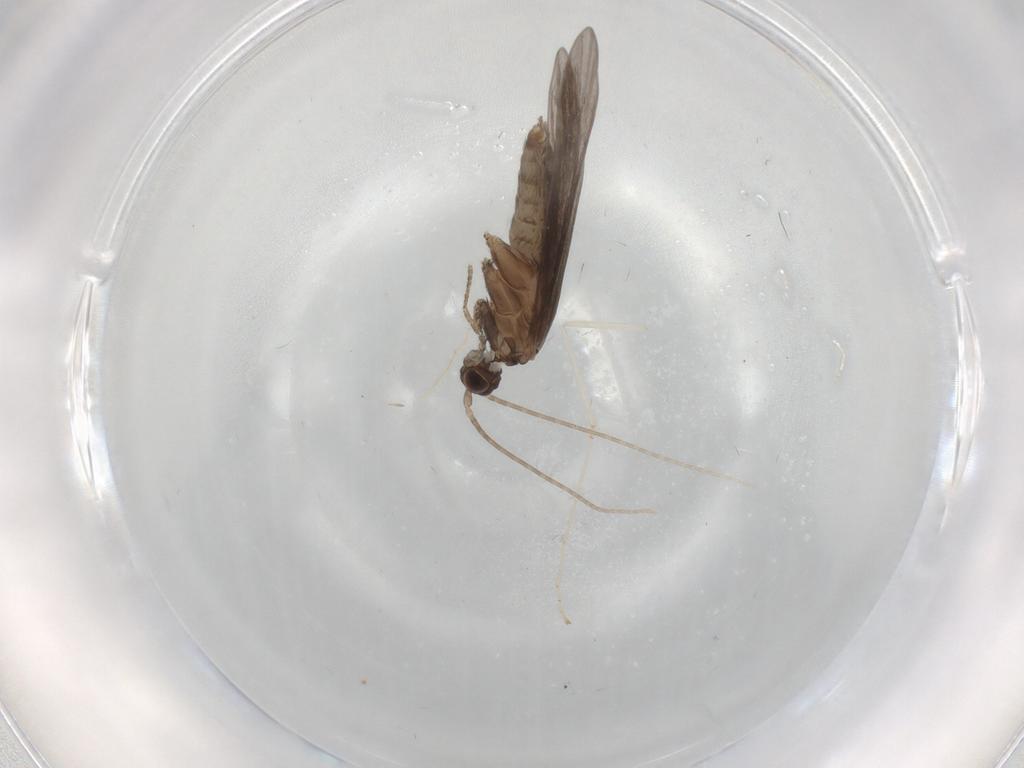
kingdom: Animalia
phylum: Arthropoda
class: Insecta
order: Trichoptera
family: Xiphocentronidae
